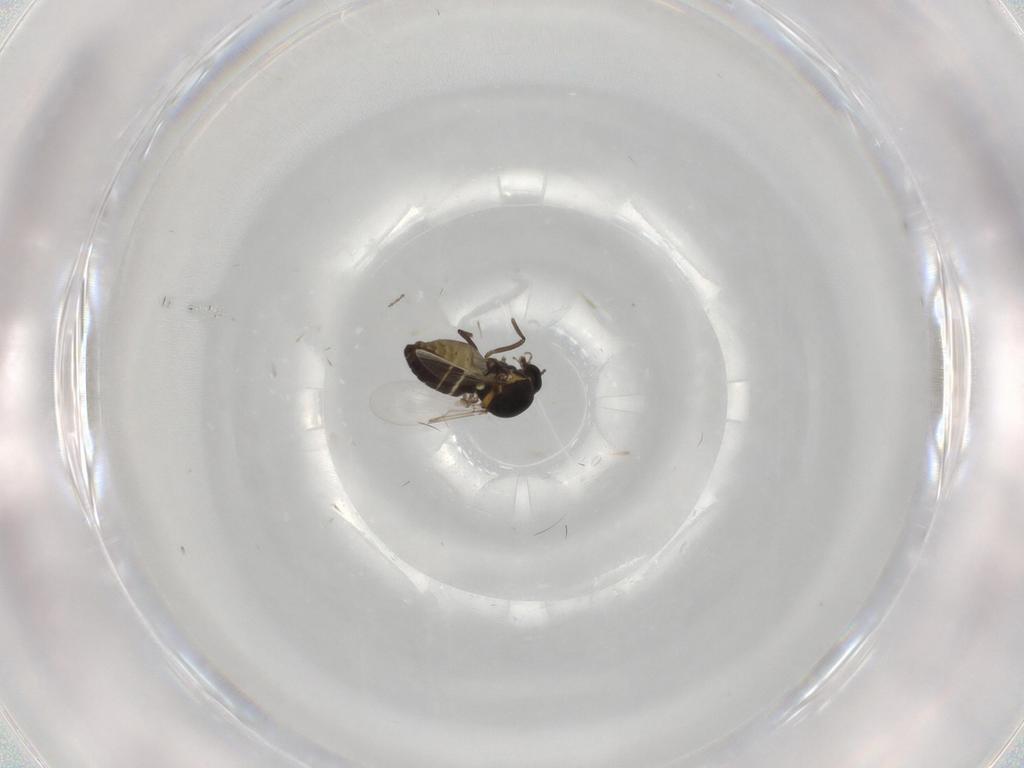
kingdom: Animalia
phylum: Arthropoda
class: Insecta
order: Diptera
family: Ceratopogonidae
